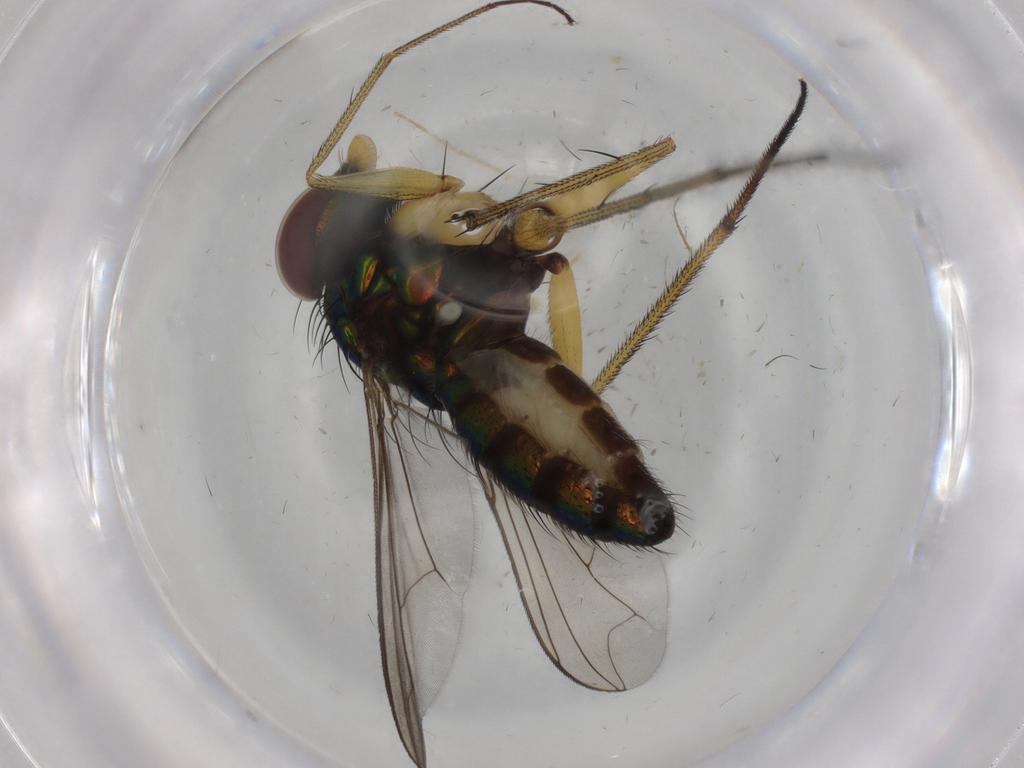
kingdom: Animalia
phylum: Arthropoda
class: Insecta
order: Diptera
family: Dolichopodidae
